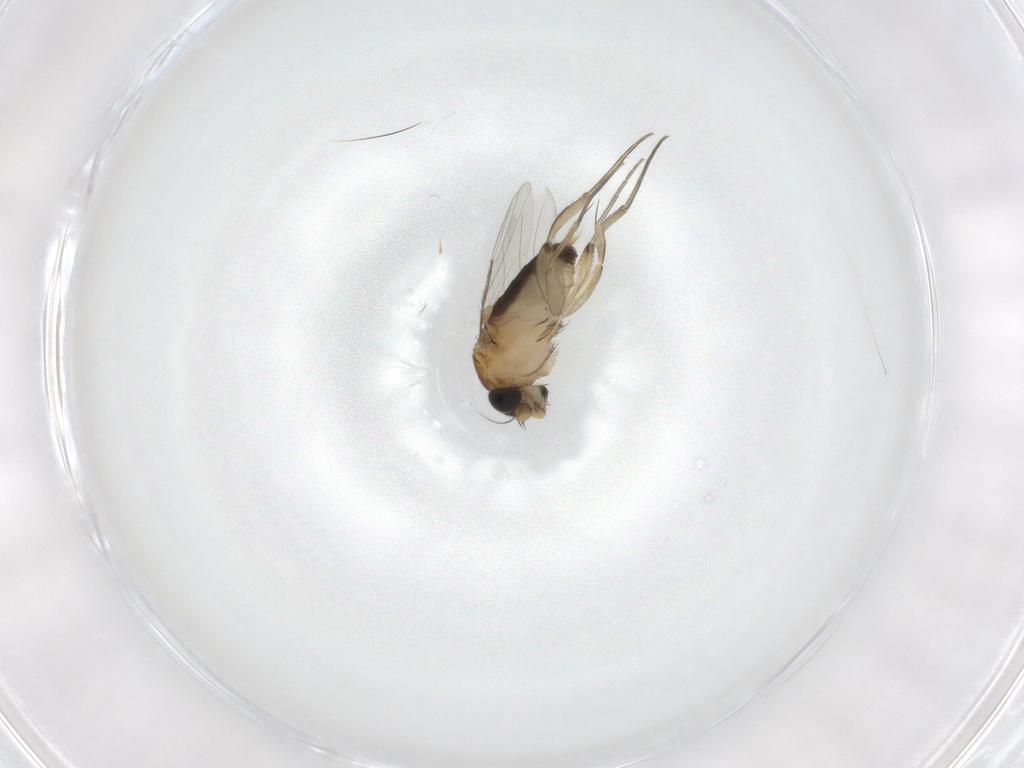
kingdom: Animalia
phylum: Arthropoda
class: Insecta
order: Diptera
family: Phoridae
